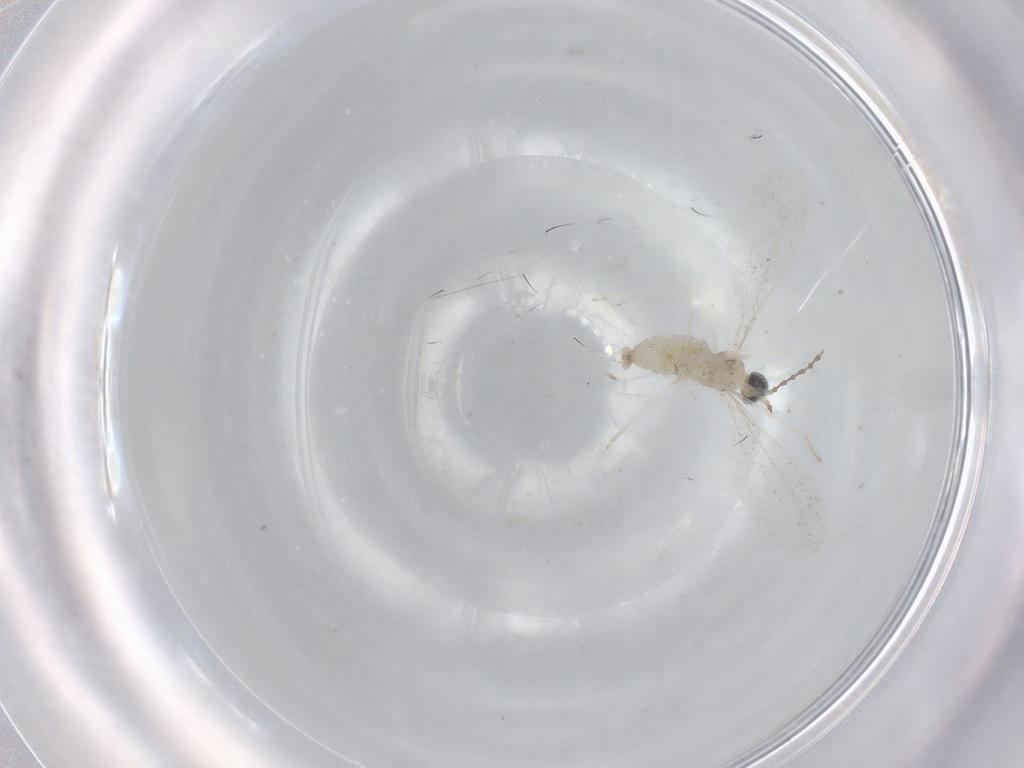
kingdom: Animalia
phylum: Arthropoda
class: Insecta
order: Diptera
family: Cecidomyiidae
